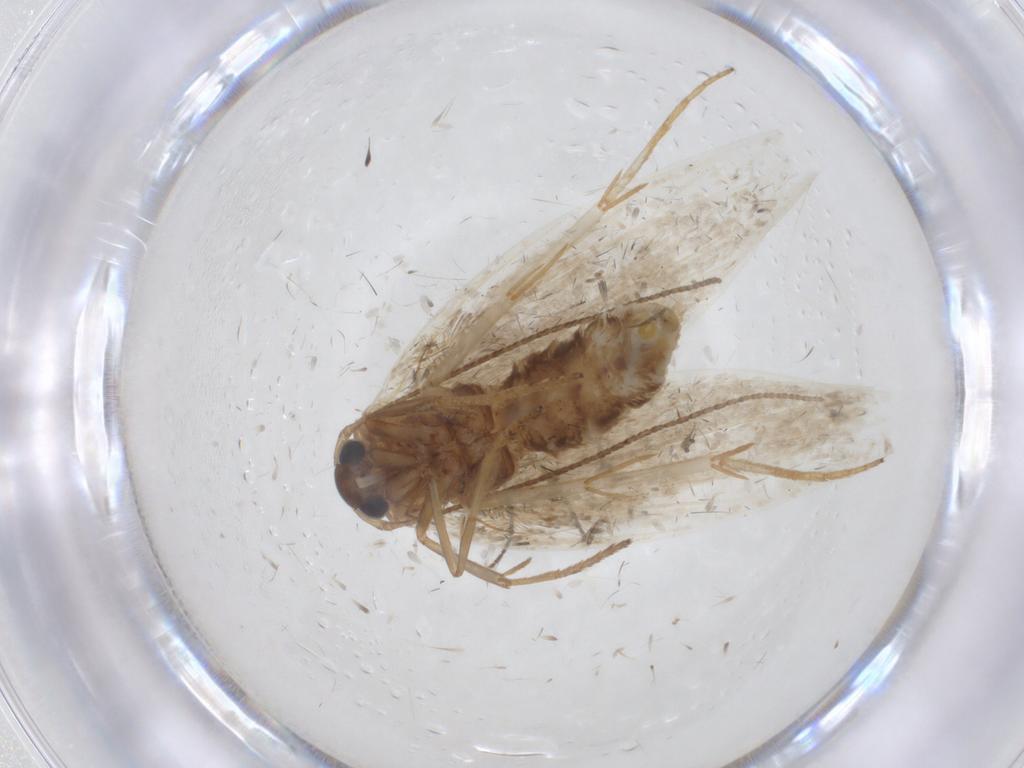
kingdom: Animalia
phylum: Arthropoda
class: Insecta
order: Lepidoptera
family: Erebidae
